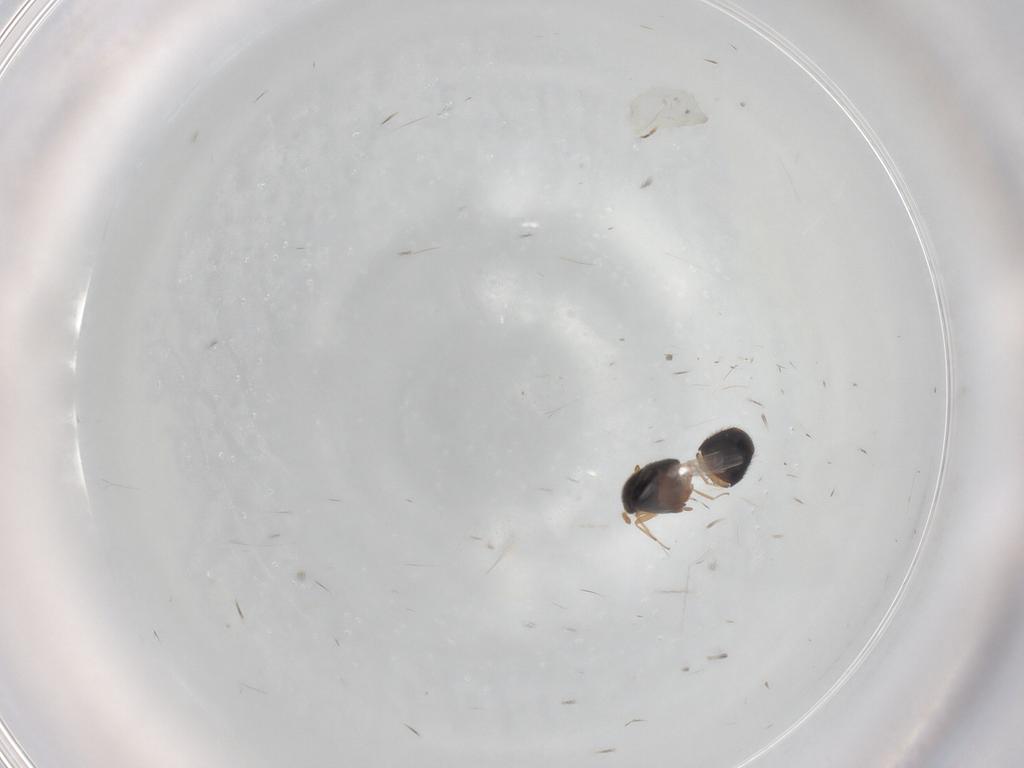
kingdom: Animalia
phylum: Arthropoda
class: Insecta
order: Coleoptera
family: Staphylinidae
